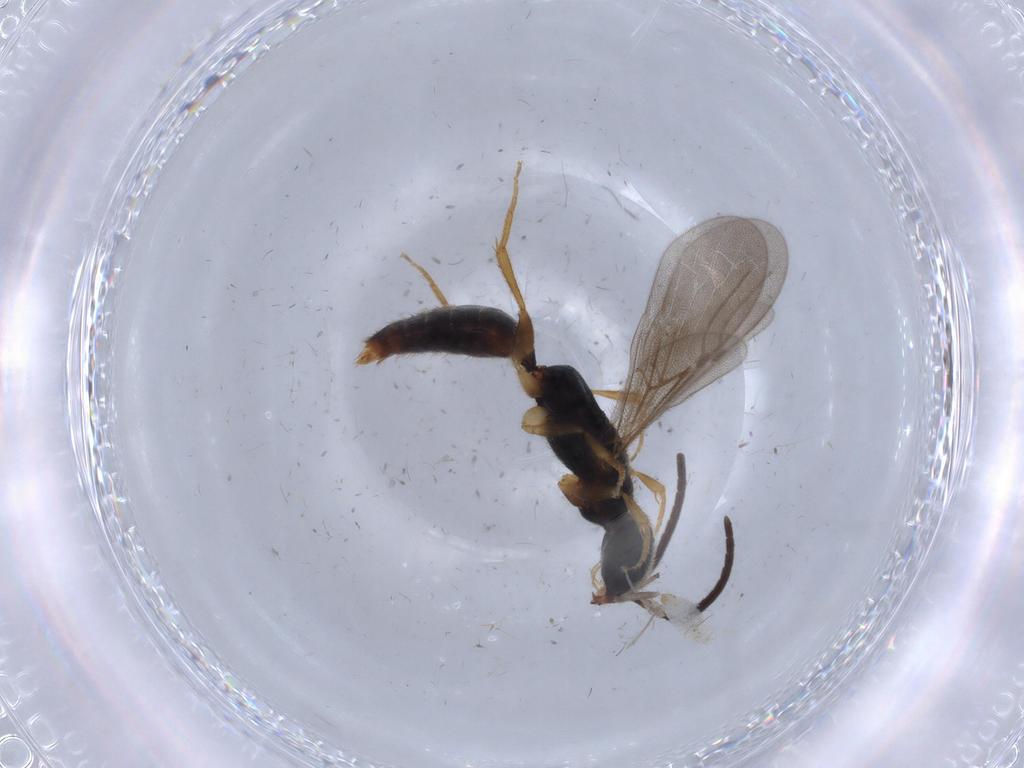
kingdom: Animalia
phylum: Arthropoda
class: Insecta
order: Hymenoptera
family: Bethylidae
